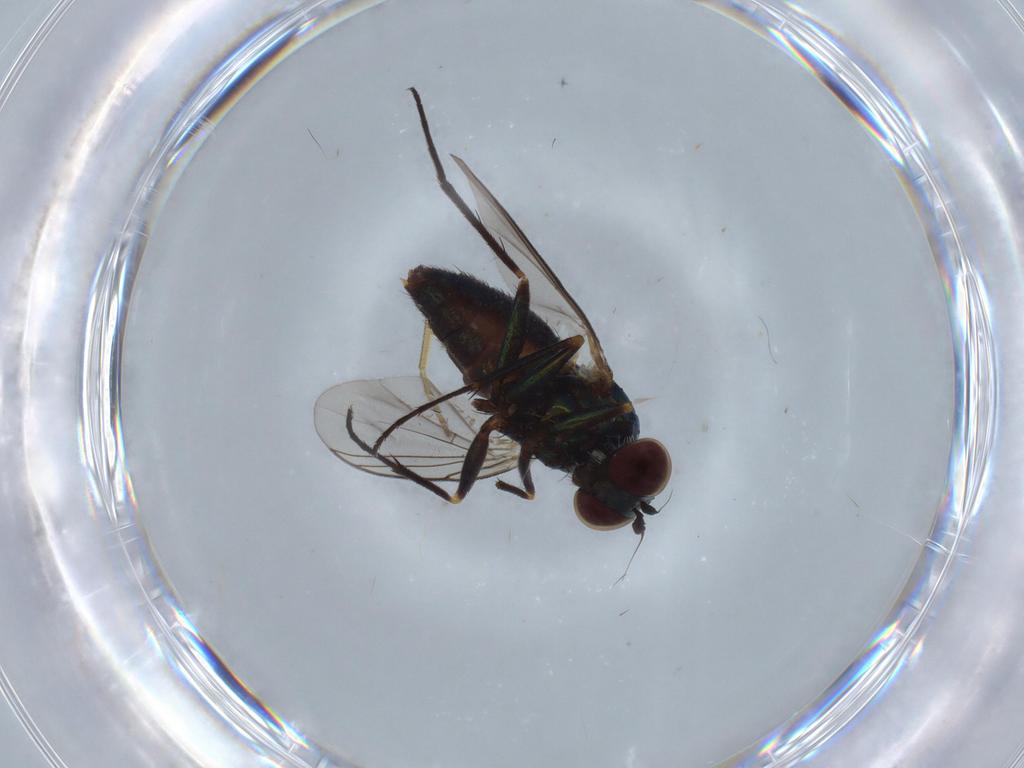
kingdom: Animalia
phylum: Arthropoda
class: Insecta
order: Diptera
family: Dolichopodidae
